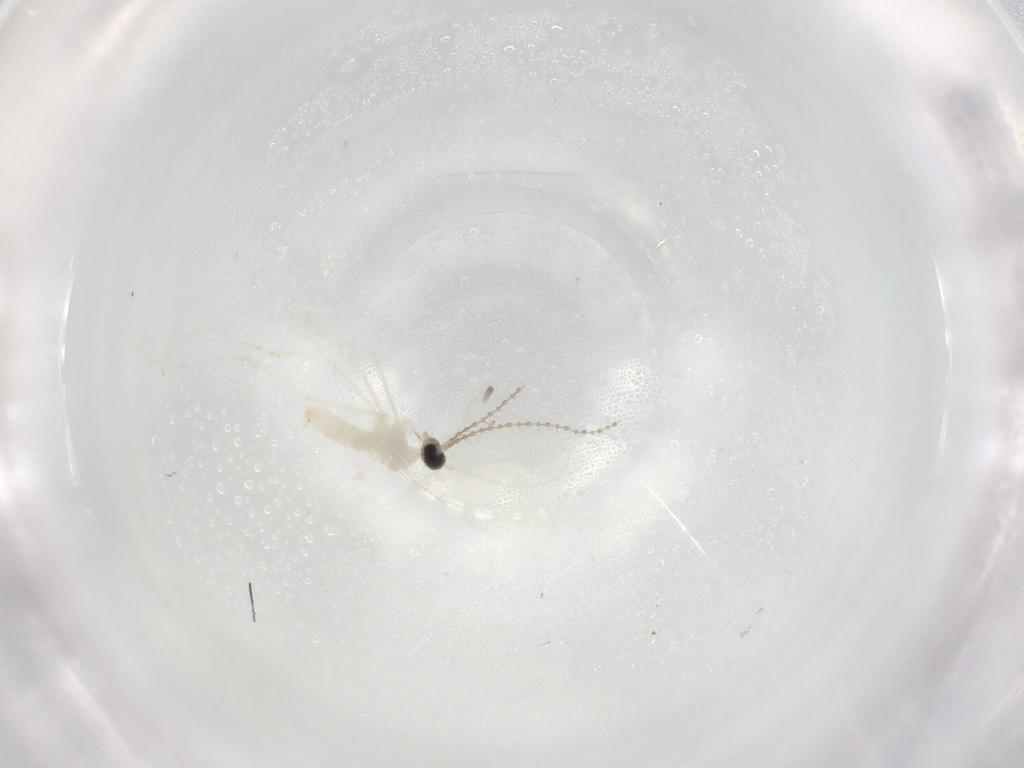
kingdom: Animalia
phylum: Arthropoda
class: Insecta
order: Diptera
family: Cecidomyiidae
